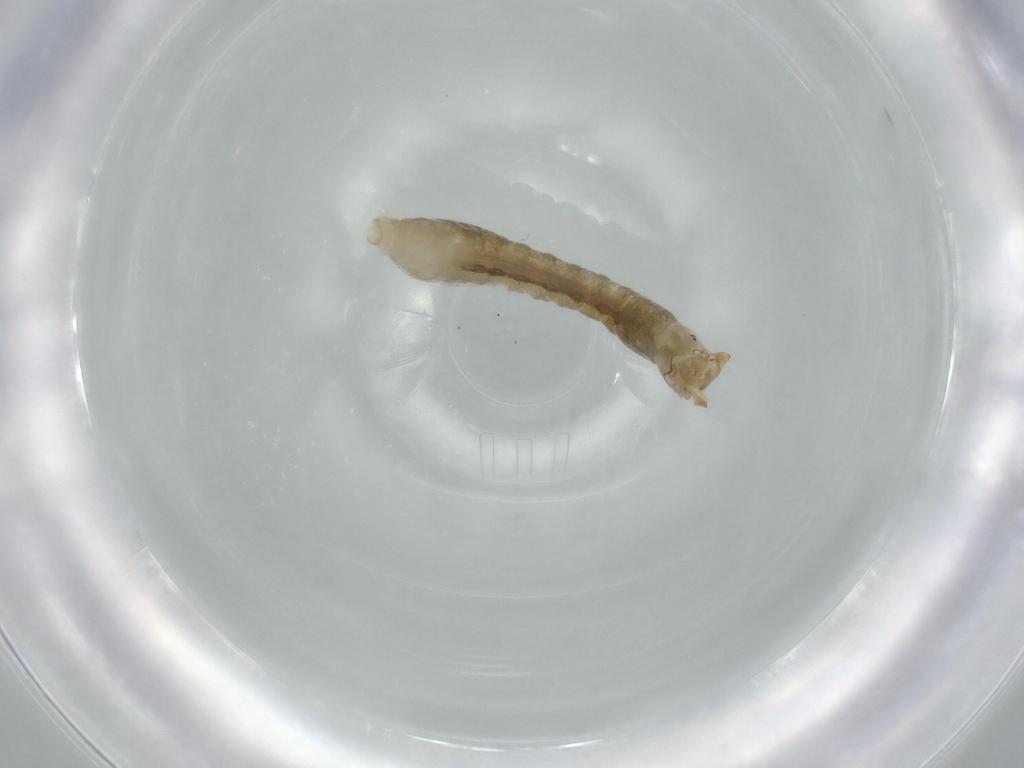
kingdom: Animalia
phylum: Arthropoda
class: Insecta
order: Diptera
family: Simuliidae
